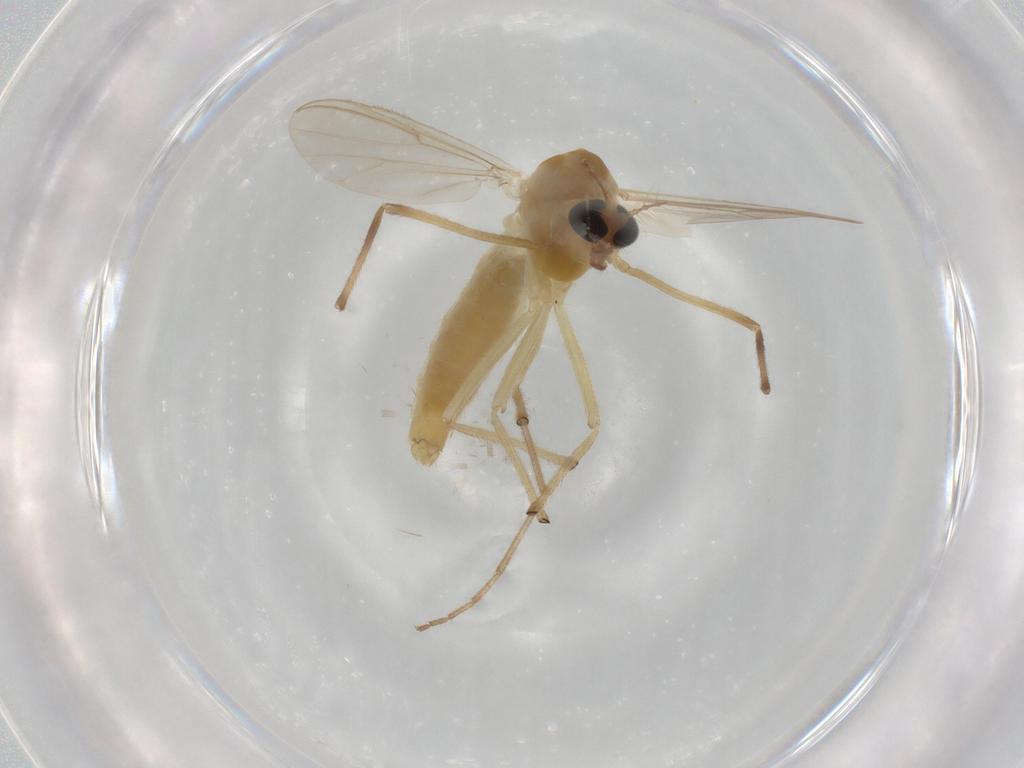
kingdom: Animalia
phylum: Arthropoda
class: Insecta
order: Diptera
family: Chironomidae
